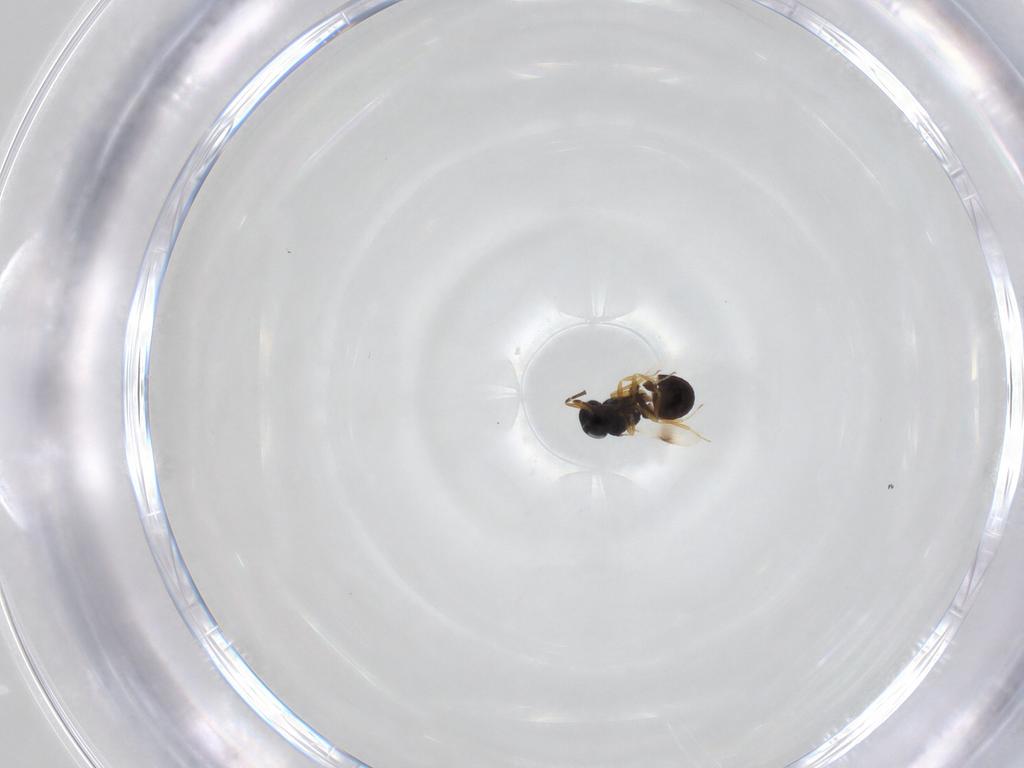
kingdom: Animalia
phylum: Arthropoda
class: Insecta
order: Hymenoptera
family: Scelionidae
